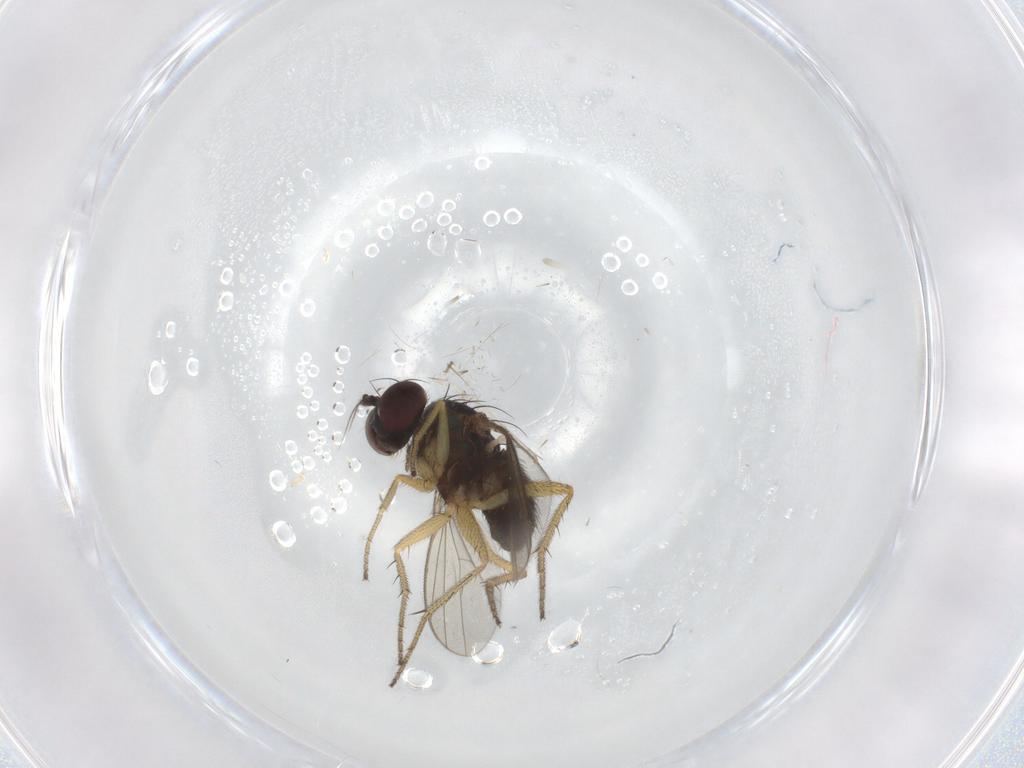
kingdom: Animalia
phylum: Arthropoda
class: Insecta
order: Diptera
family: Dolichopodidae
